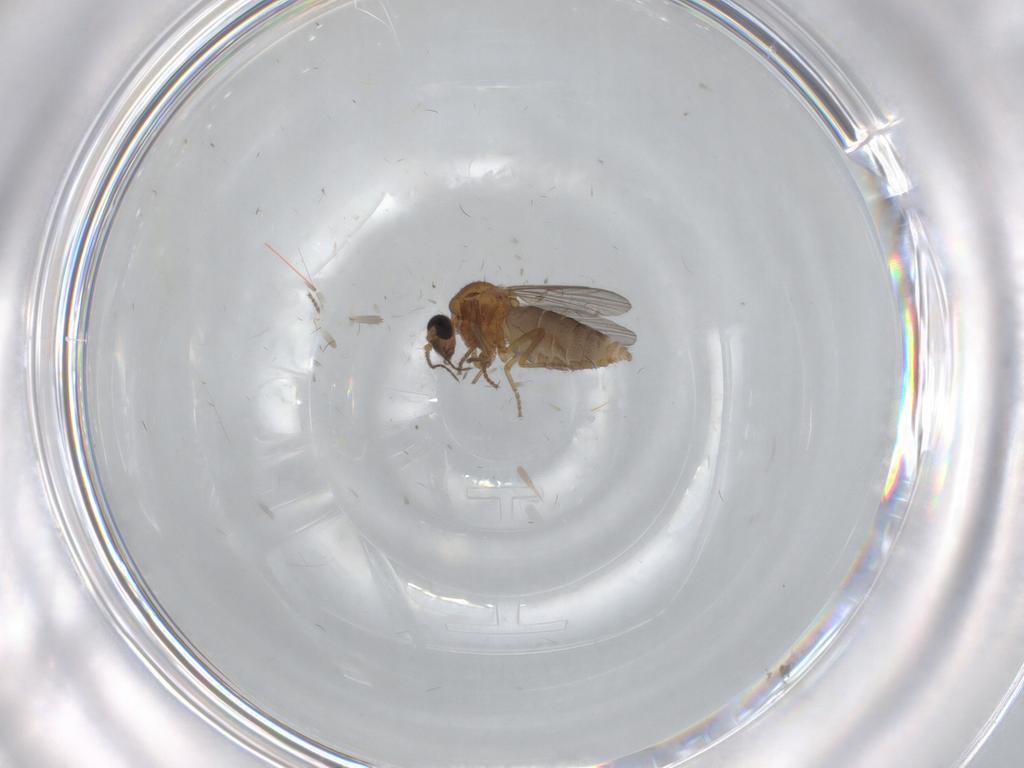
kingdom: Animalia
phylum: Arthropoda
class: Insecta
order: Diptera
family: Ceratopogonidae
